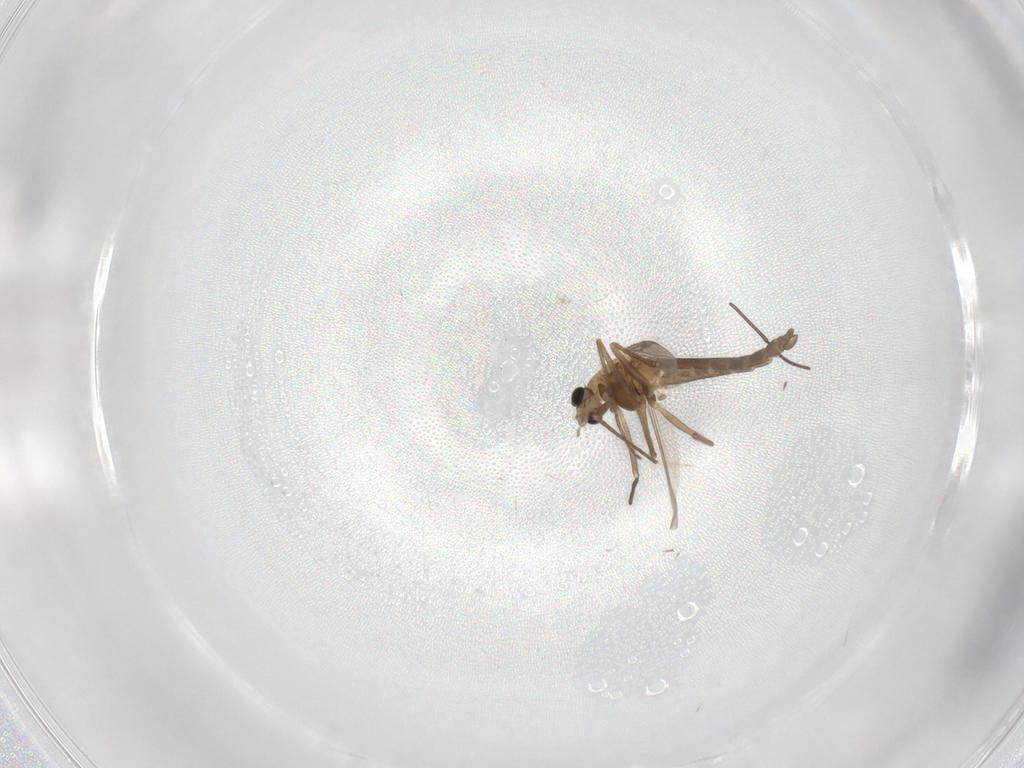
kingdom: Animalia
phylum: Arthropoda
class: Insecta
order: Diptera
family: Chironomidae
